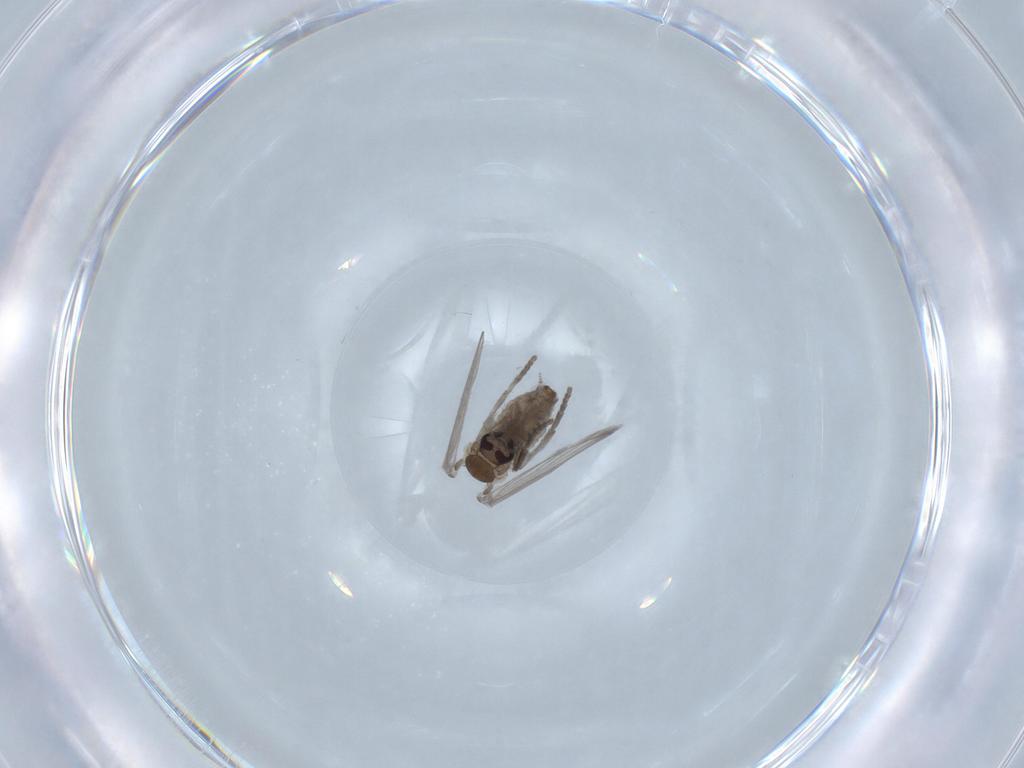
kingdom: Animalia
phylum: Arthropoda
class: Insecta
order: Diptera
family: Psychodidae
